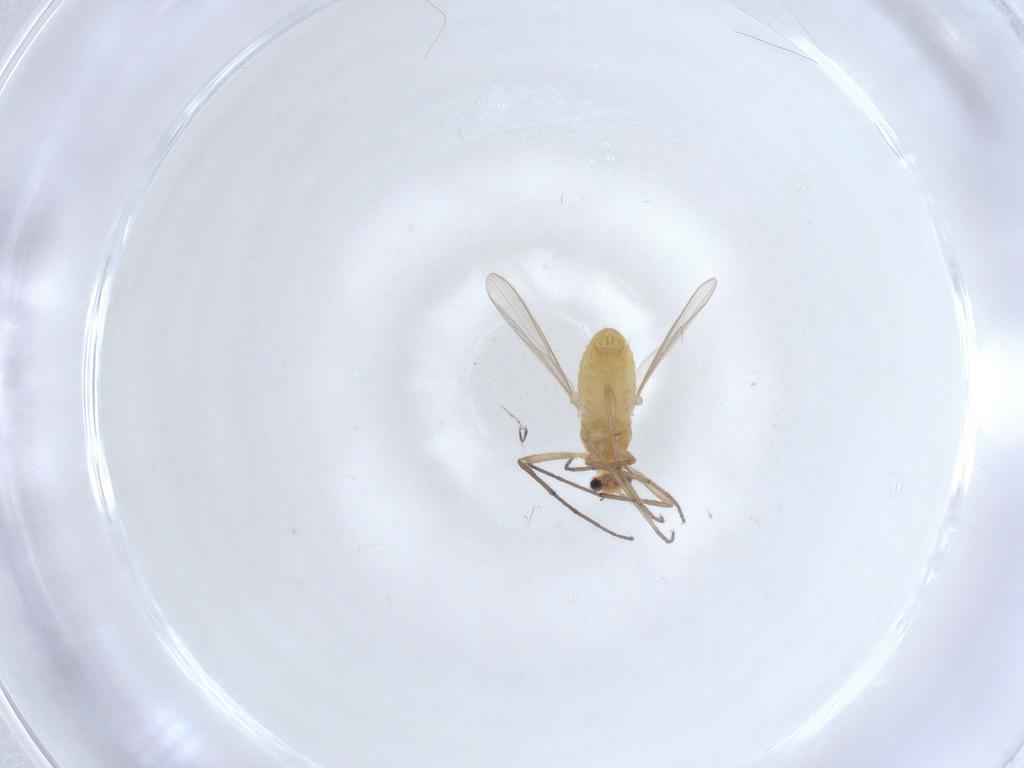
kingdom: Animalia
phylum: Arthropoda
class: Insecta
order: Diptera
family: Chironomidae
